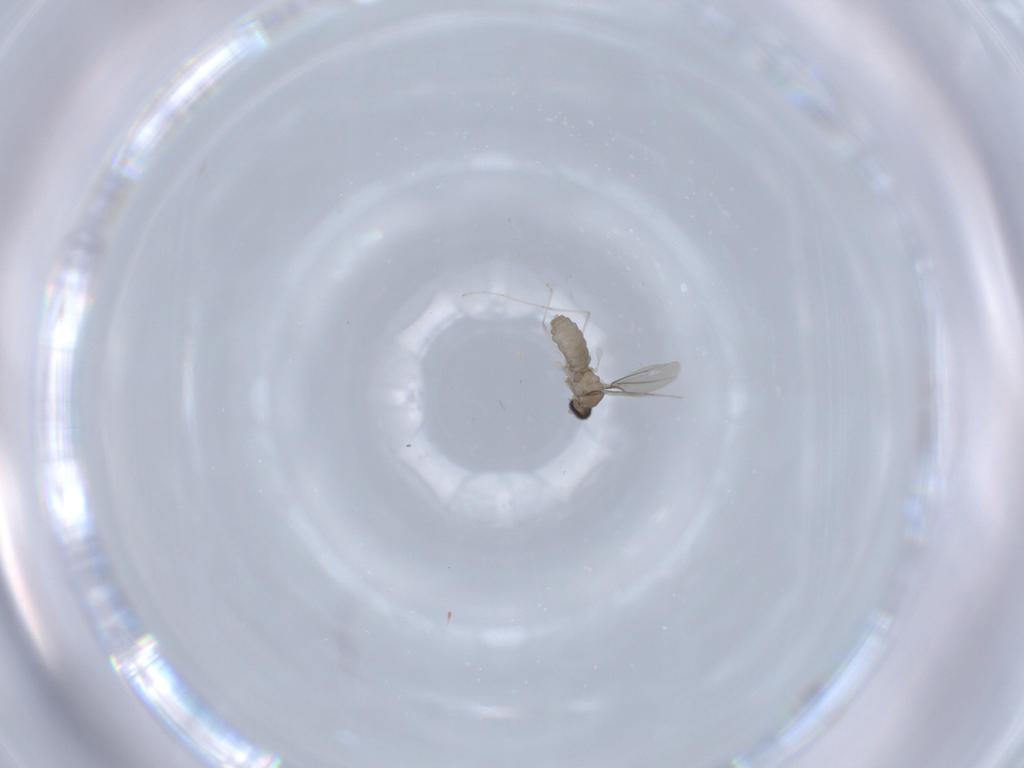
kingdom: Animalia
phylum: Arthropoda
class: Insecta
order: Diptera
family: Cecidomyiidae
